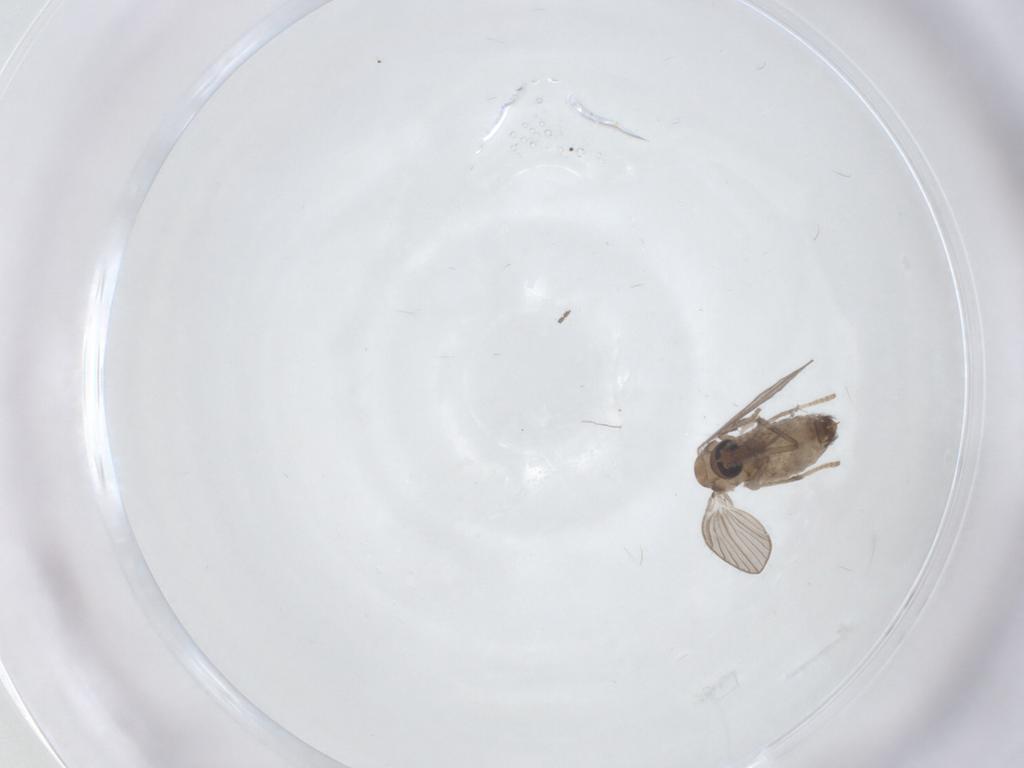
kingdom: Animalia
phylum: Arthropoda
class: Insecta
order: Diptera
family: Psychodidae
